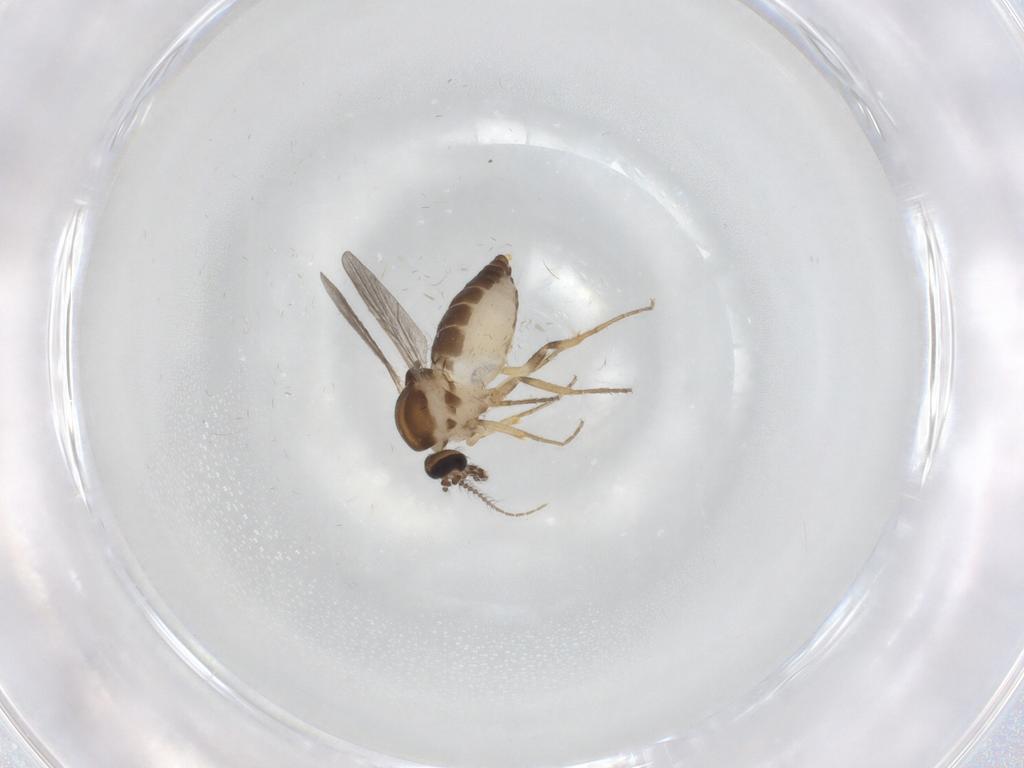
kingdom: Animalia
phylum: Arthropoda
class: Insecta
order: Diptera
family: Ceratopogonidae
